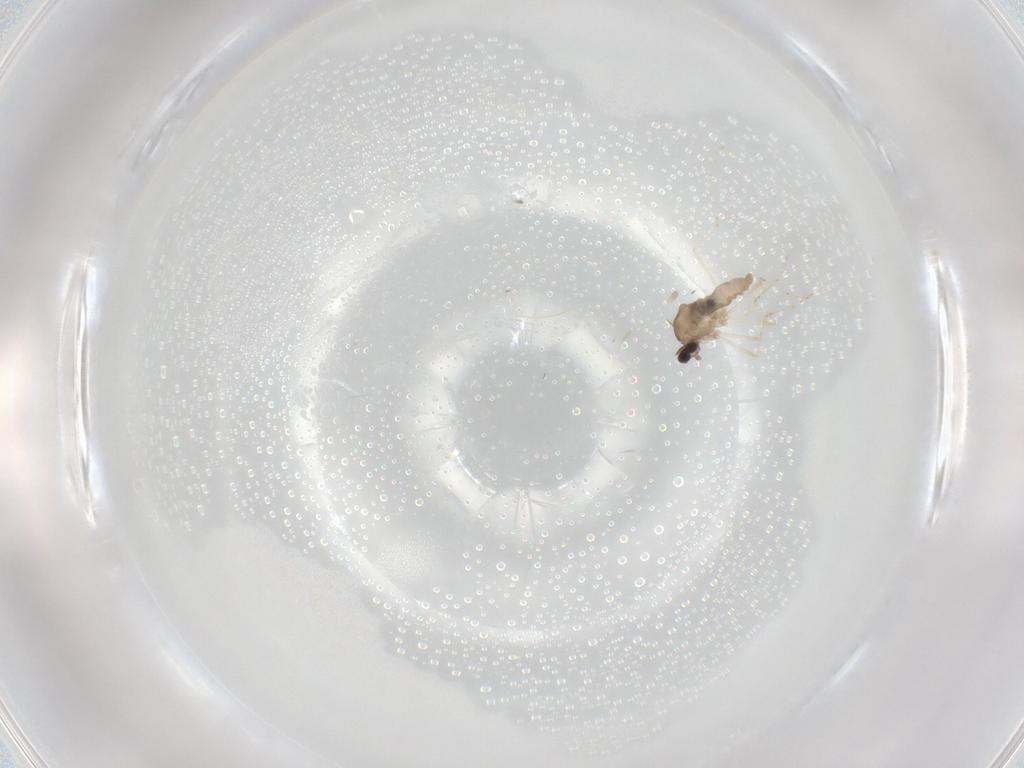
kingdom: Animalia
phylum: Arthropoda
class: Insecta
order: Diptera
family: Cecidomyiidae
